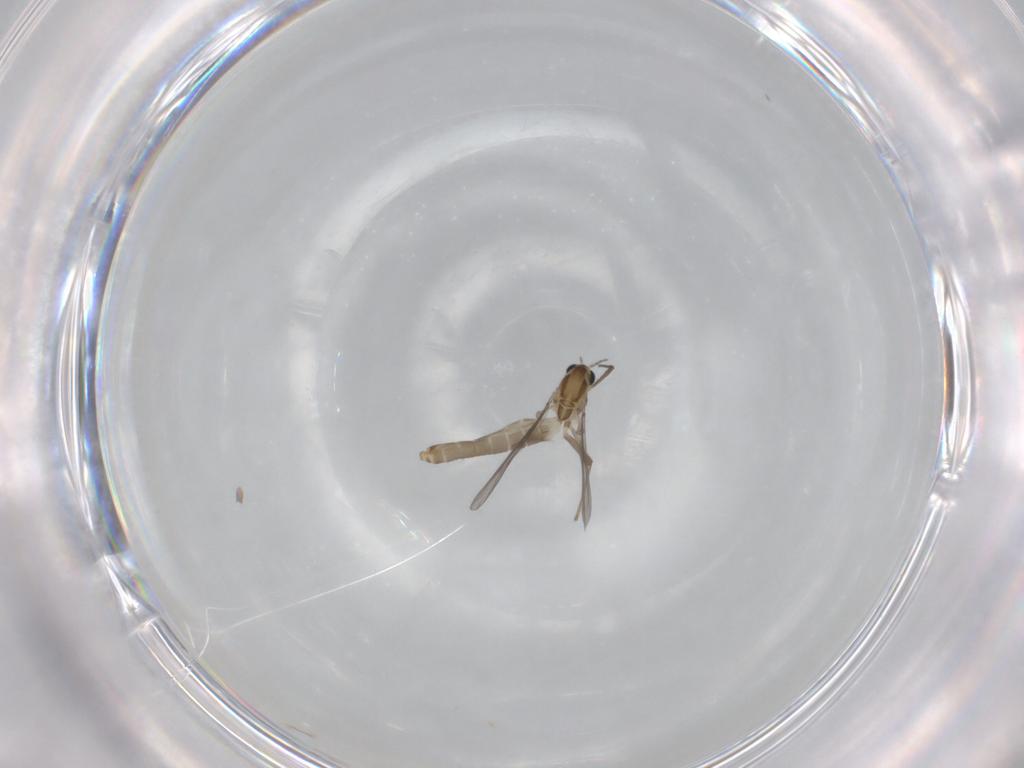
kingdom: Animalia
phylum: Arthropoda
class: Insecta
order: Diptera
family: Chironomidae
